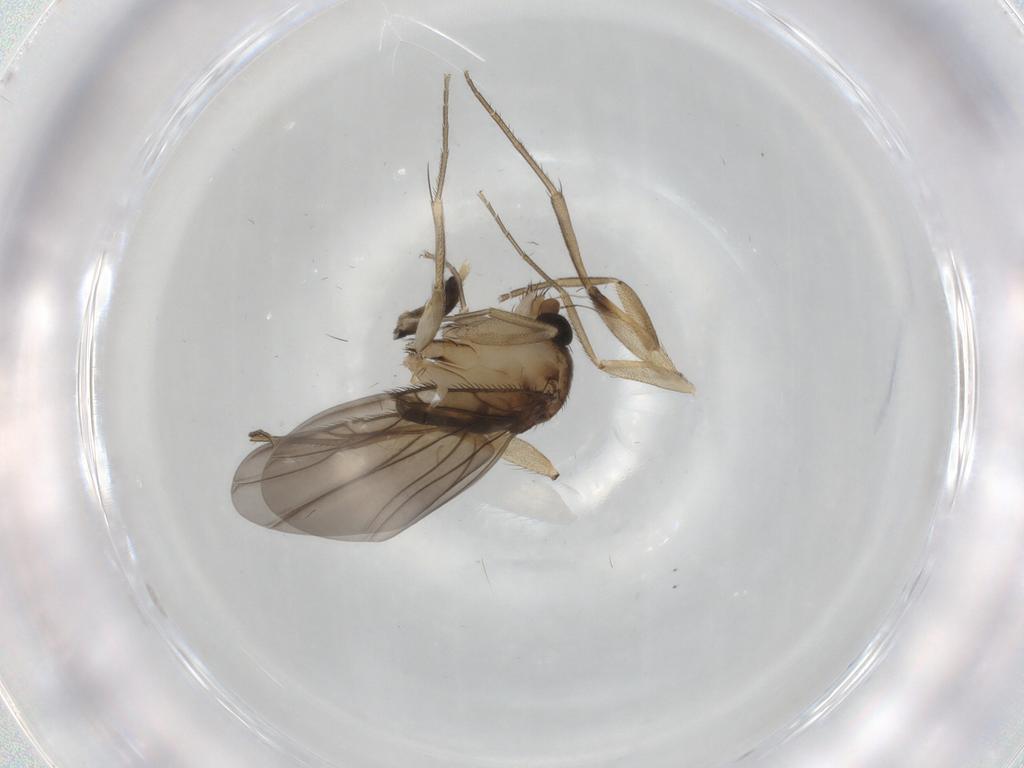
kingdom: Animalia
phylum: Arthropoda
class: Insecta
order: Diptera
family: Phoridae
